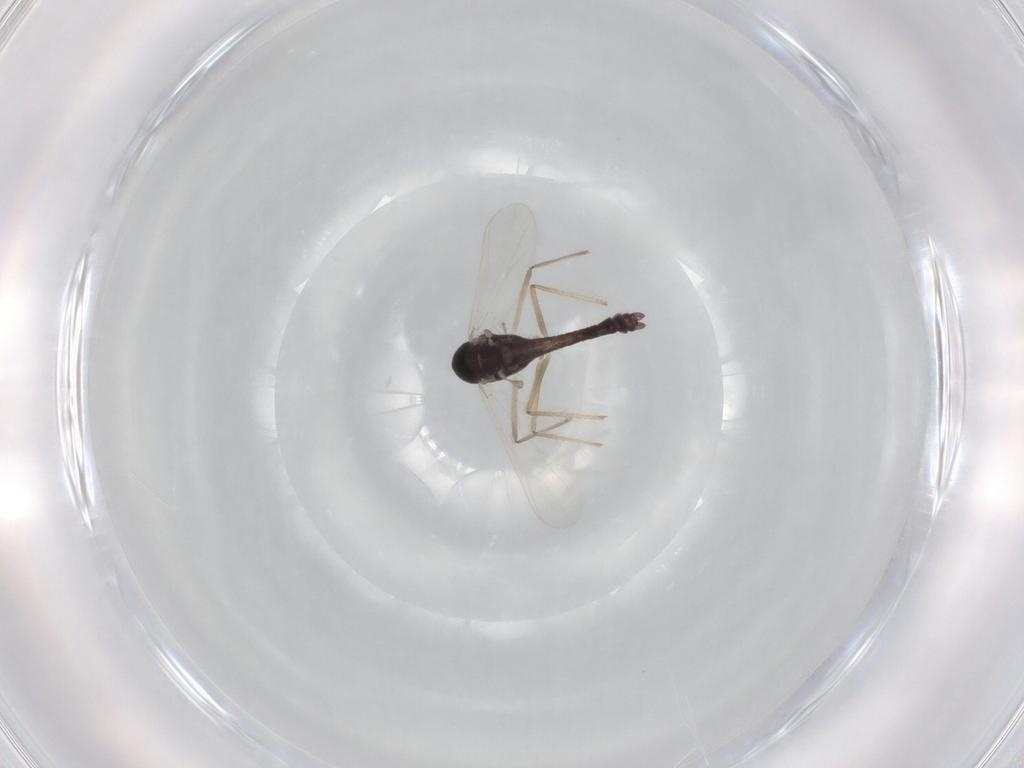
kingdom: Animalia
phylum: Arthropoda
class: Insecta
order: Diptera
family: Chironomidae
